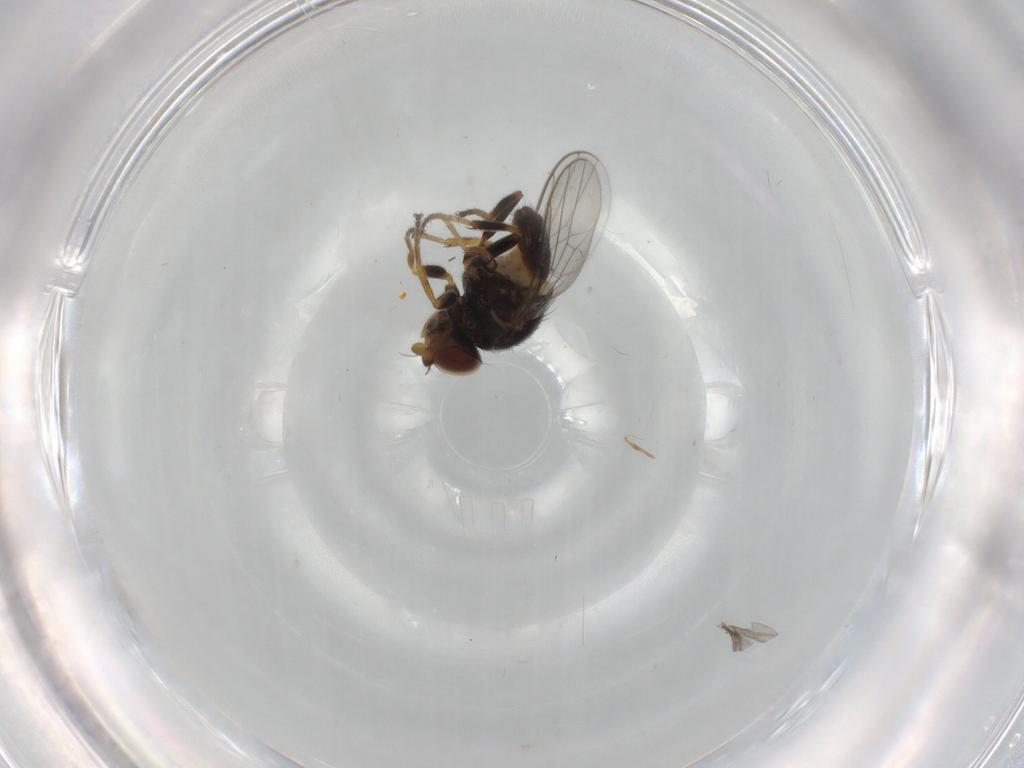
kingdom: Animalia
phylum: Arthropoda
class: Insecta
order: Diptera
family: Chloropidae
